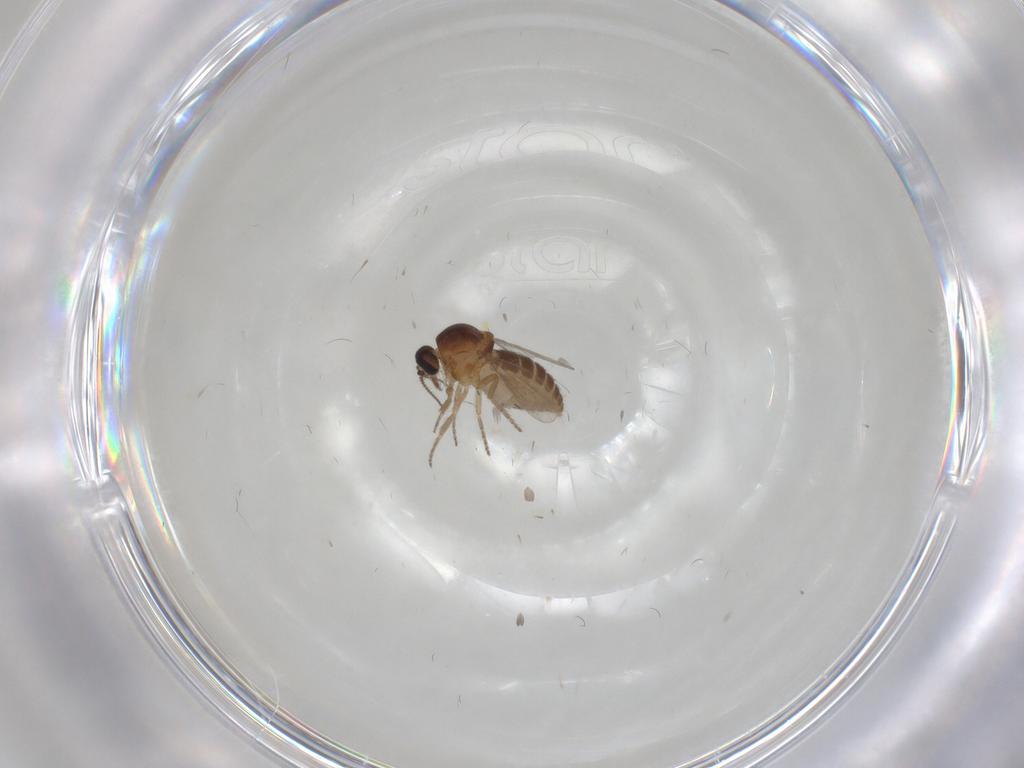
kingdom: Animalia
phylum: Arthropoda
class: Insecta
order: Diptera
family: Ceratopogonidae
